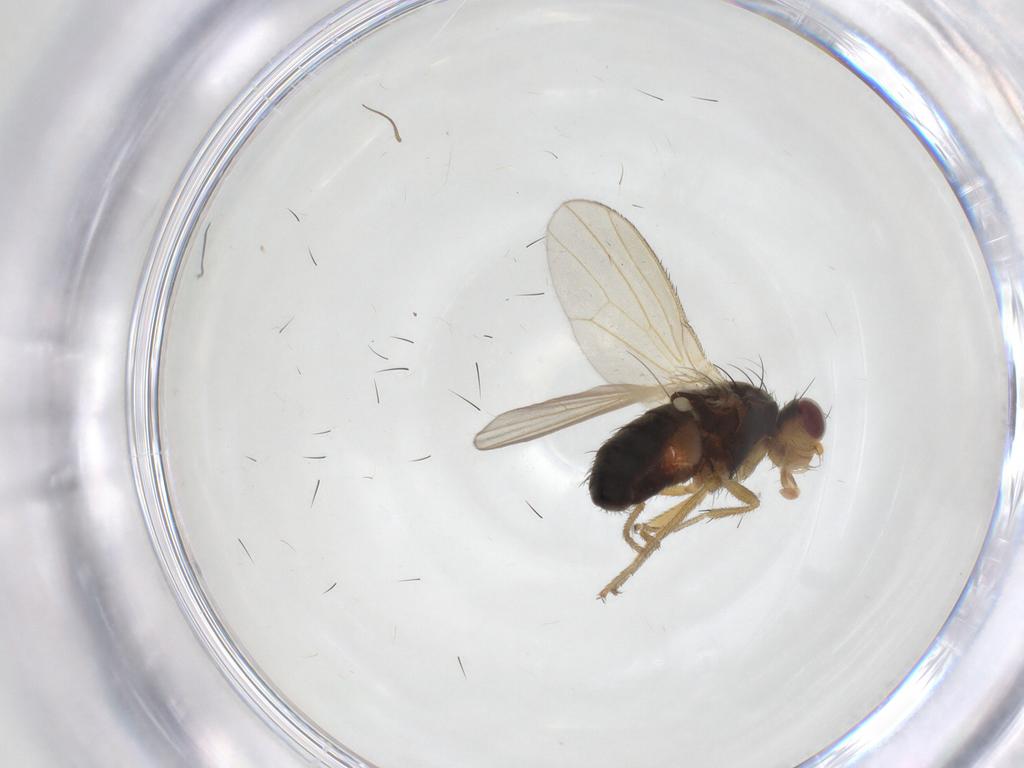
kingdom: Animalia
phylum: Arthropoda
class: Insecta
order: Diptera
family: Heleomyzidae
